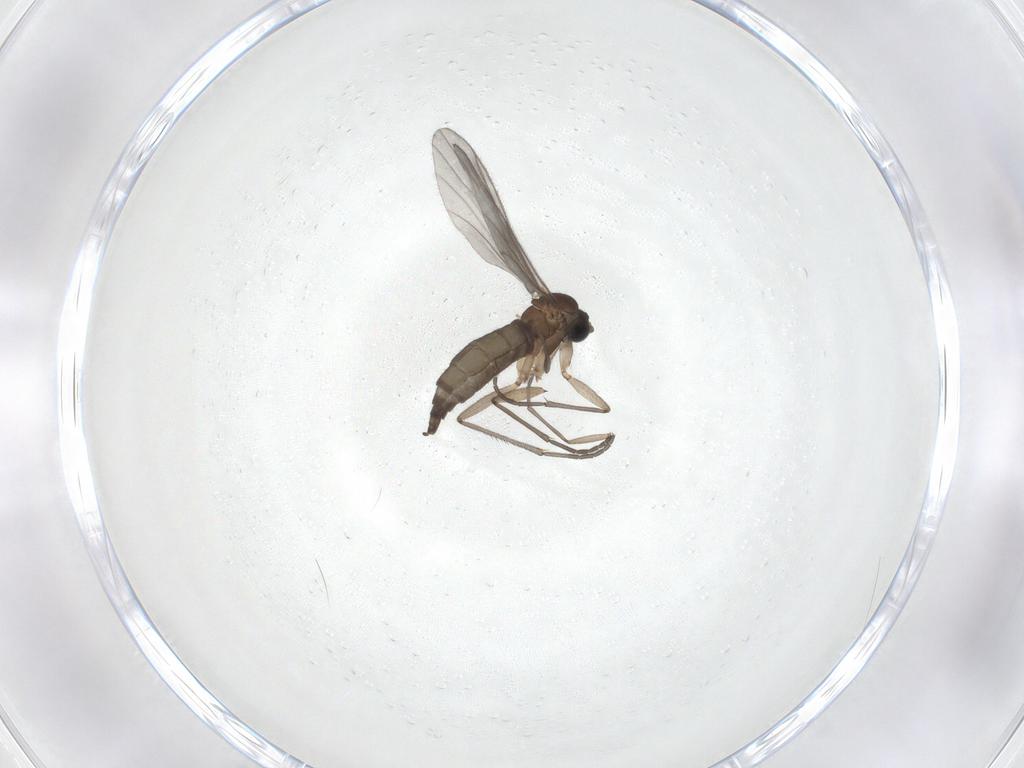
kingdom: Animalia
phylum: Arthropoda
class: Insecta
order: Diptera
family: Sciaridae
